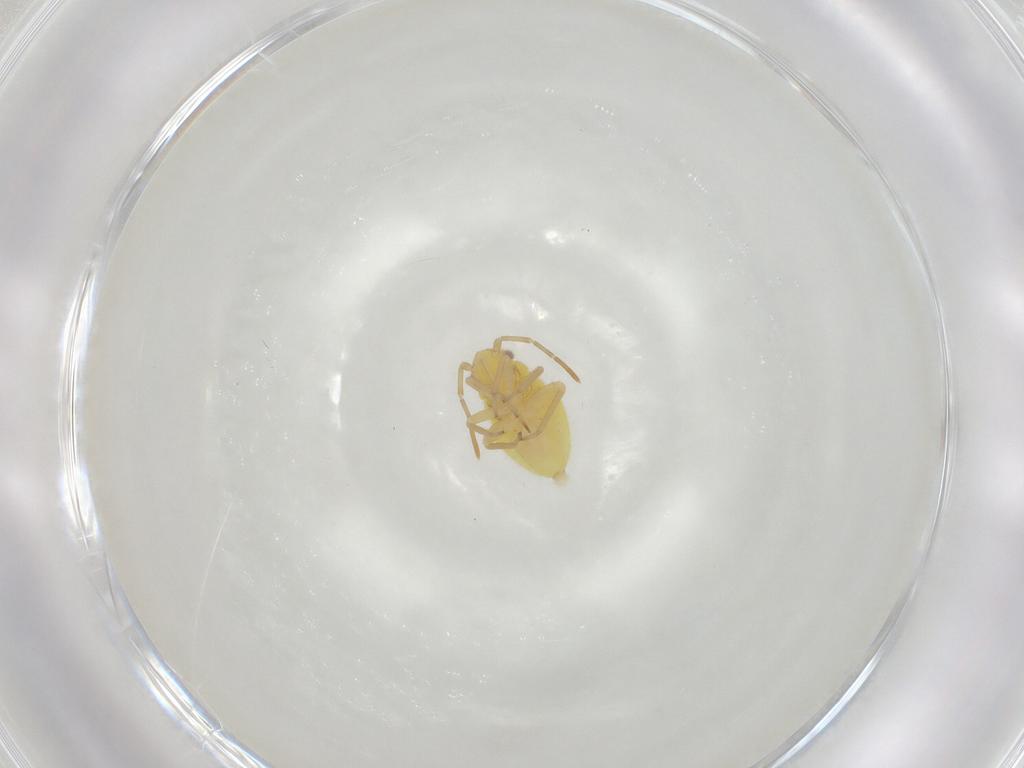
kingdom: Animalia
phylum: Arthropoda
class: Insecta
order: Hemiptera
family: Miridae
